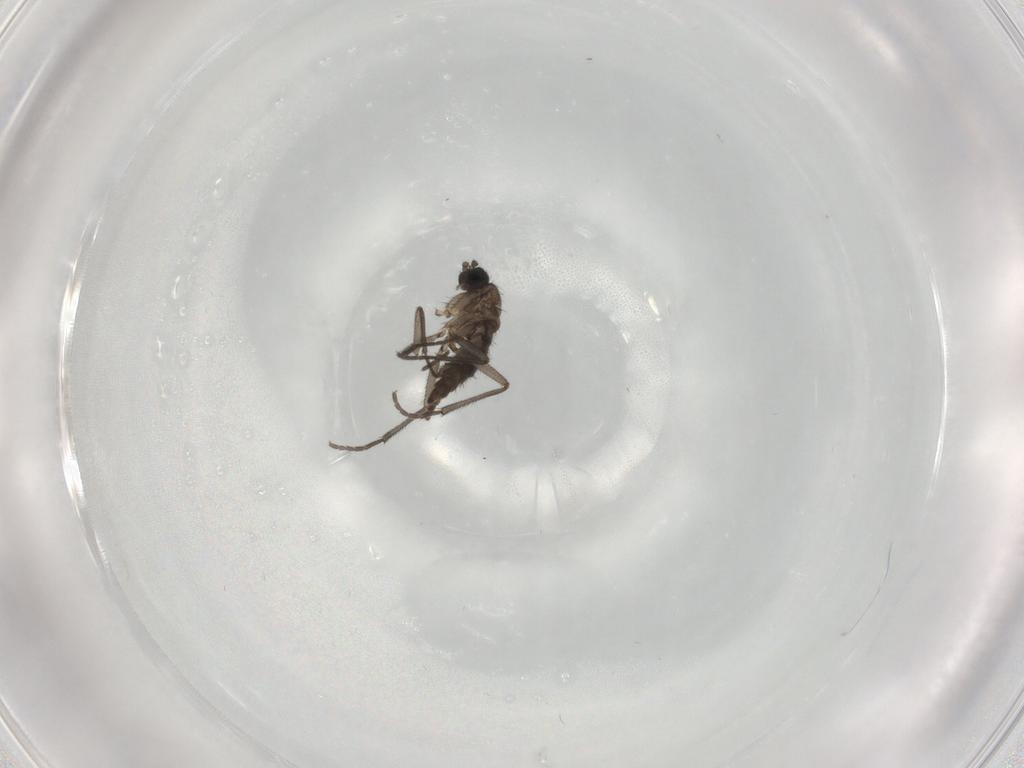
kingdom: Animalia
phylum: Arthropoda
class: Insecta
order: Diptera
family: Sciaridae
